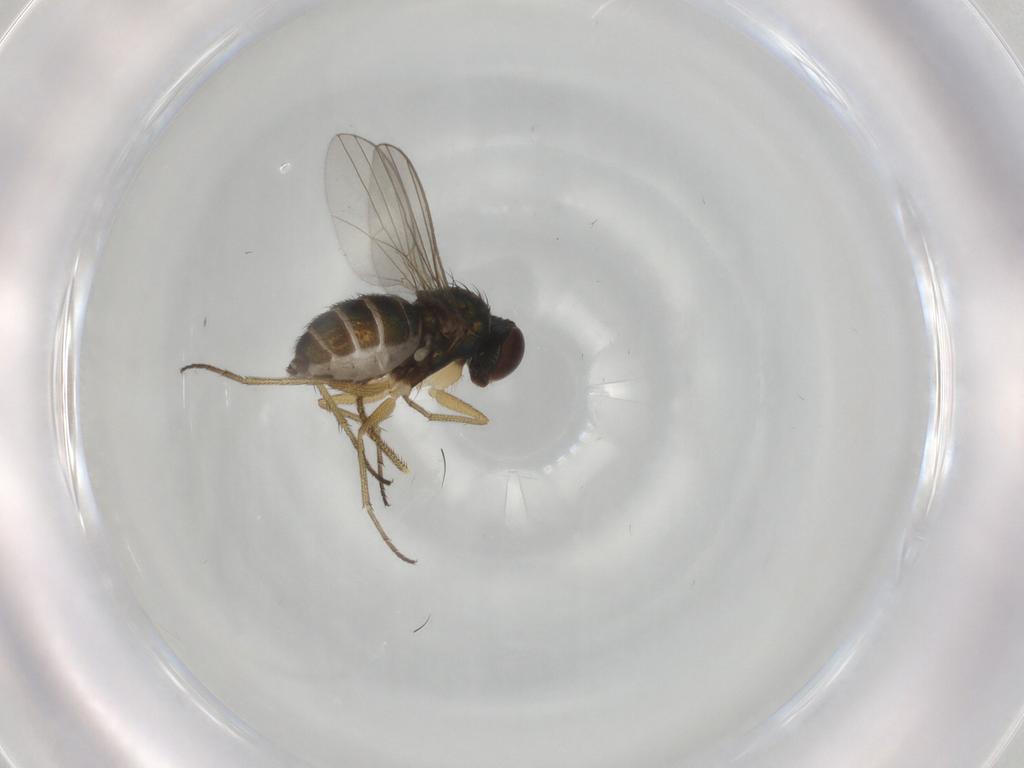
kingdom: Animalia
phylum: Arthropoda
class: Insecta
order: Diptera
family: Dolichopodidae
